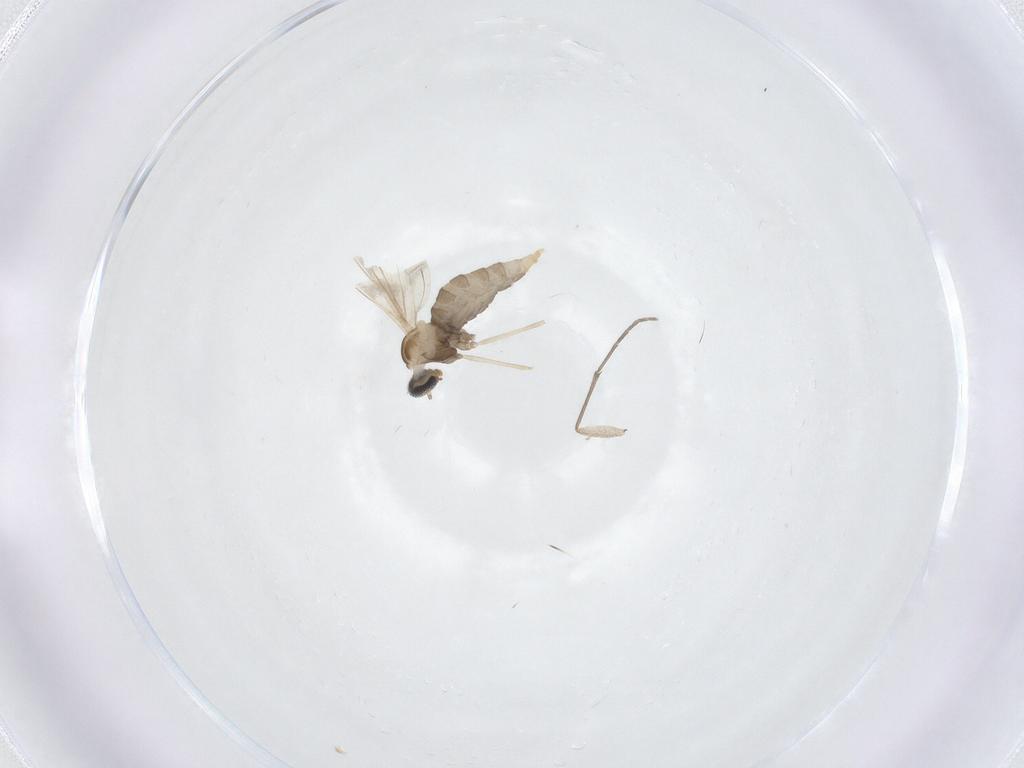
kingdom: Animalia
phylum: Arthropoda
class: Insecta
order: Diptera
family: Cecidomyiidae
